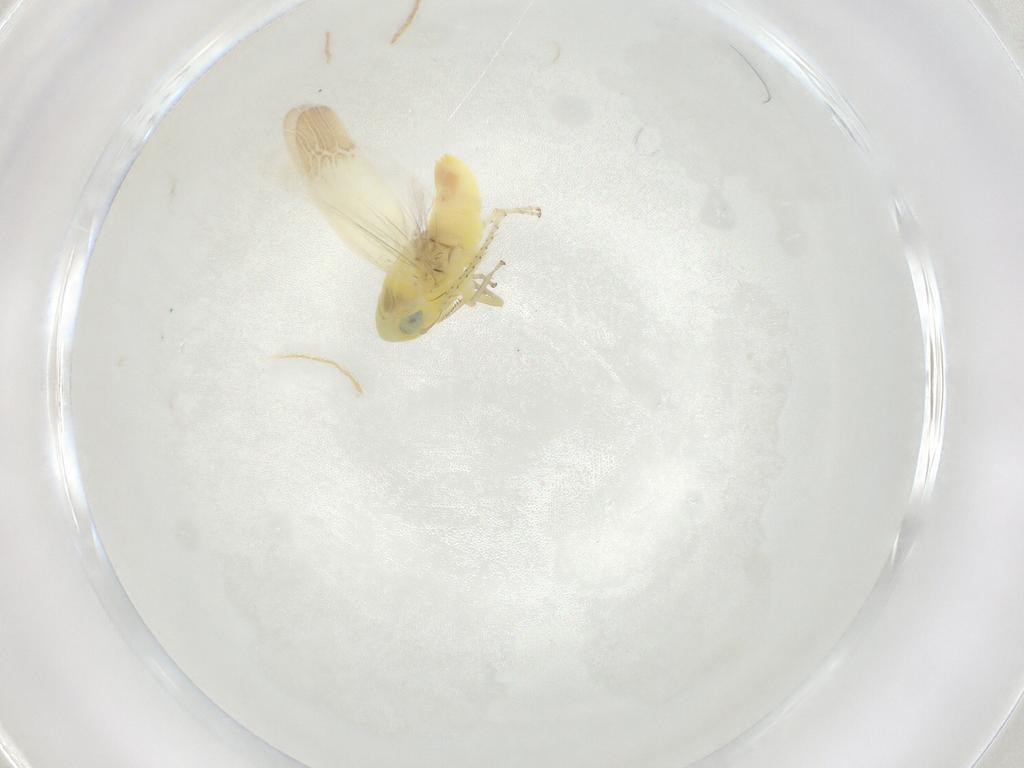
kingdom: Animalia
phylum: Arthropoda
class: Insecta
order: Hemiptera
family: Cicadellidae
